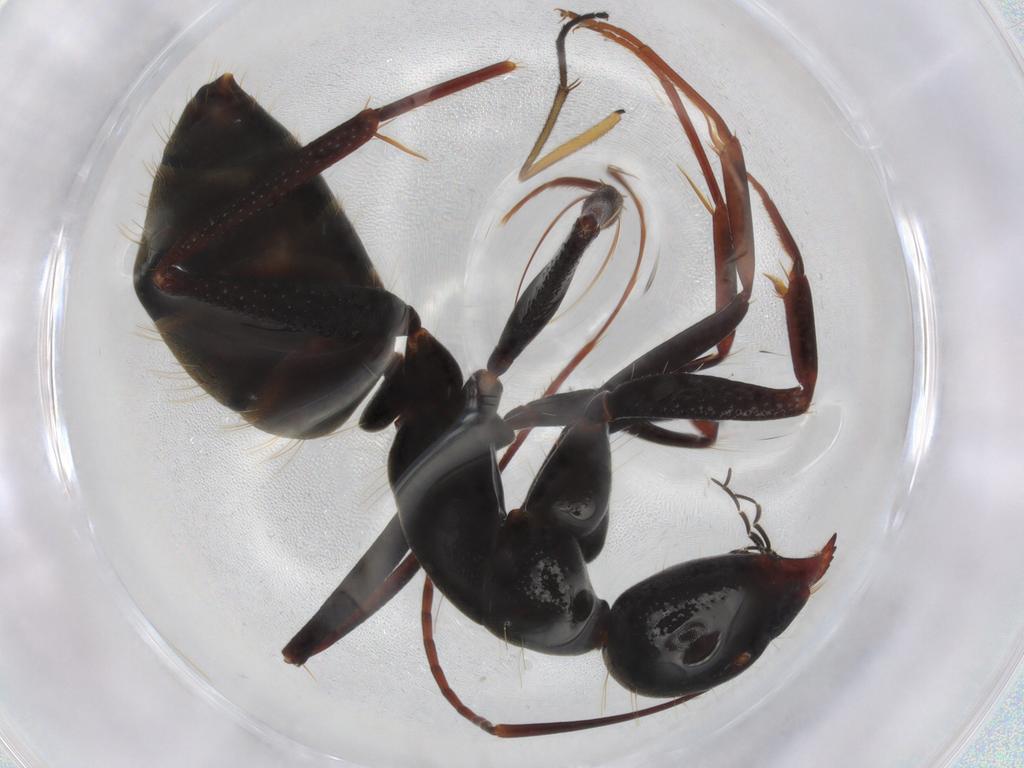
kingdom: Animalia
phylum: Arthropoda
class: Insecta
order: Hymenoptera
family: Formicidae
